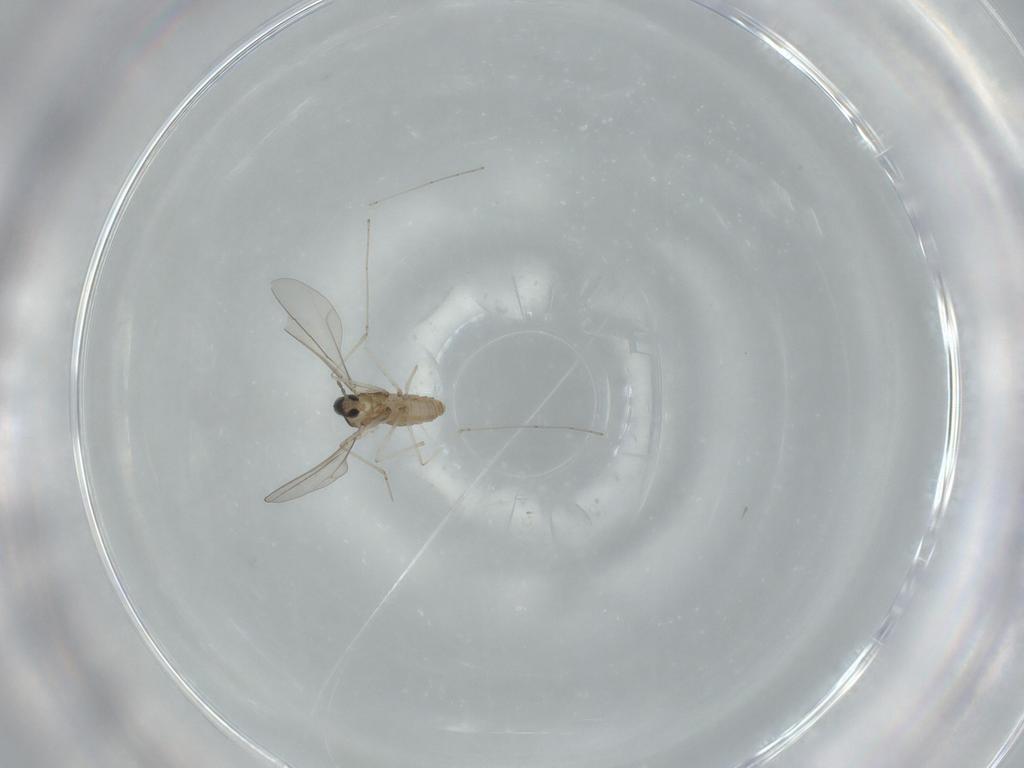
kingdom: Animalia
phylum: Arthropoda
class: Insecta
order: Diptera
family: Cecidomyiidae
